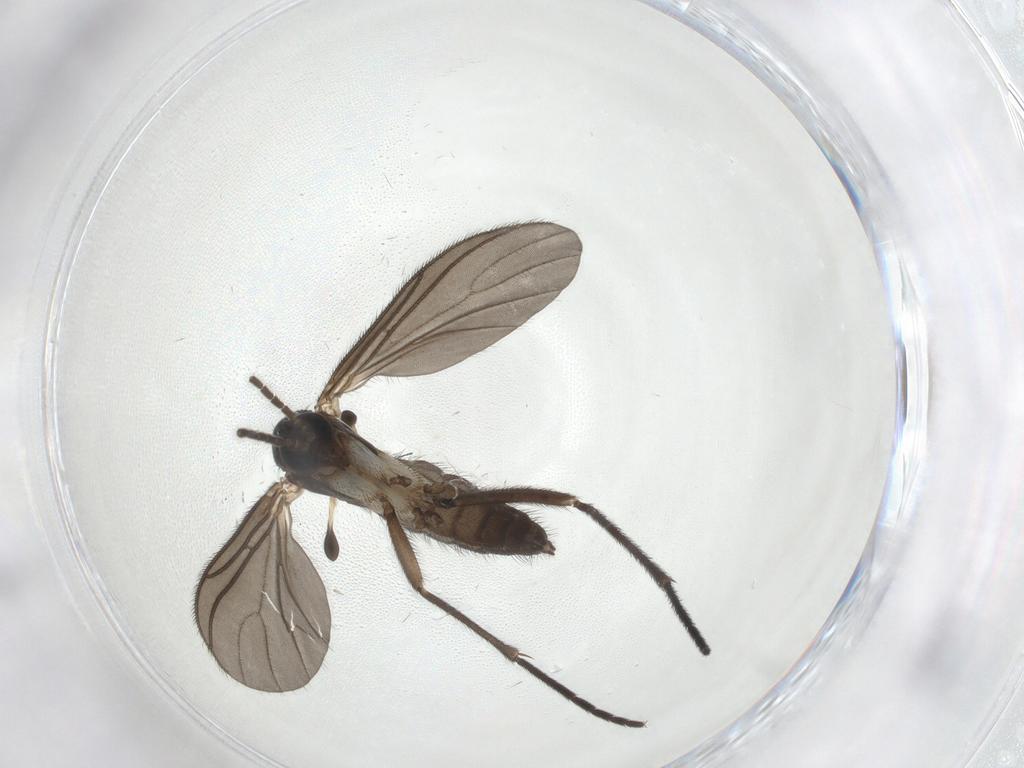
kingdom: Animalia
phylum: Arthropoda
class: Insecta
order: Diptera
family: Sciaridae
